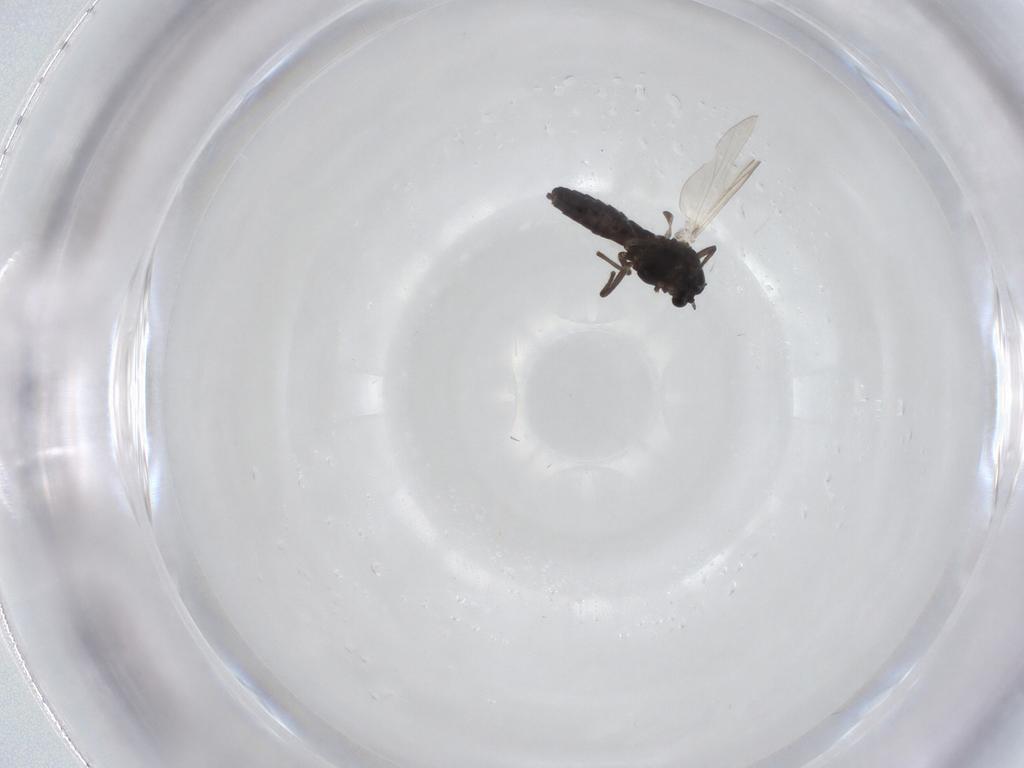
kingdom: Animalia
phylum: Arthropoda
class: Insecta
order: Diptera
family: Chironomidae
